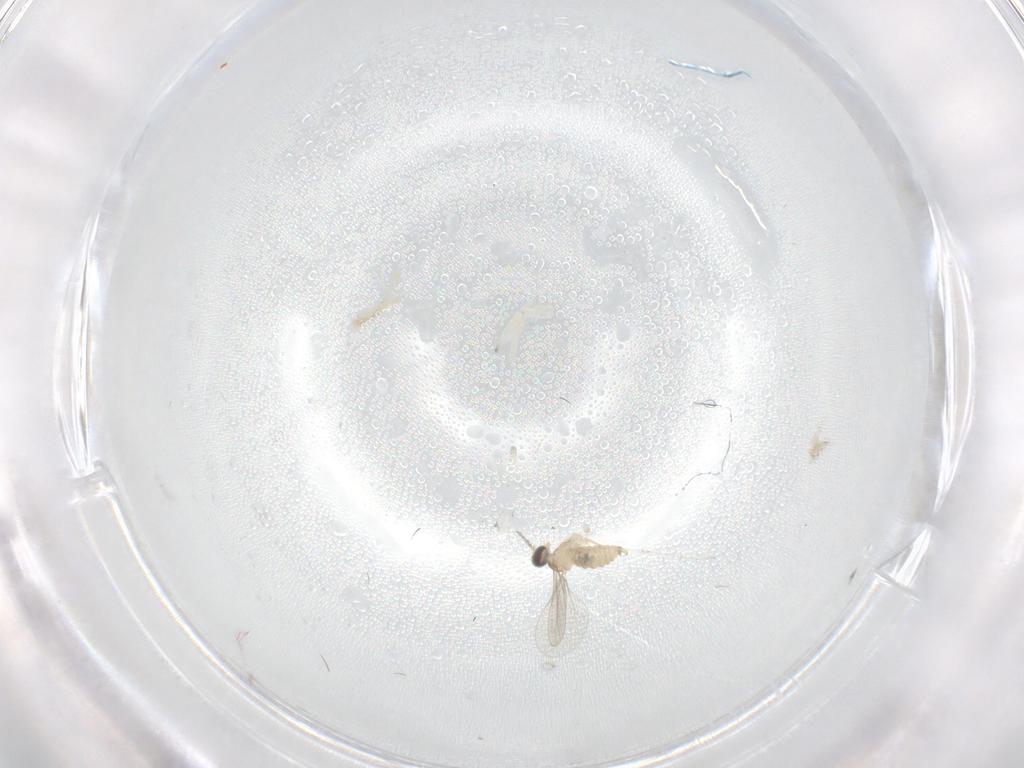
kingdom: Animalia
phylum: Arthropoda
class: Insecta
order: Diptera
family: Cecidomyiidae
